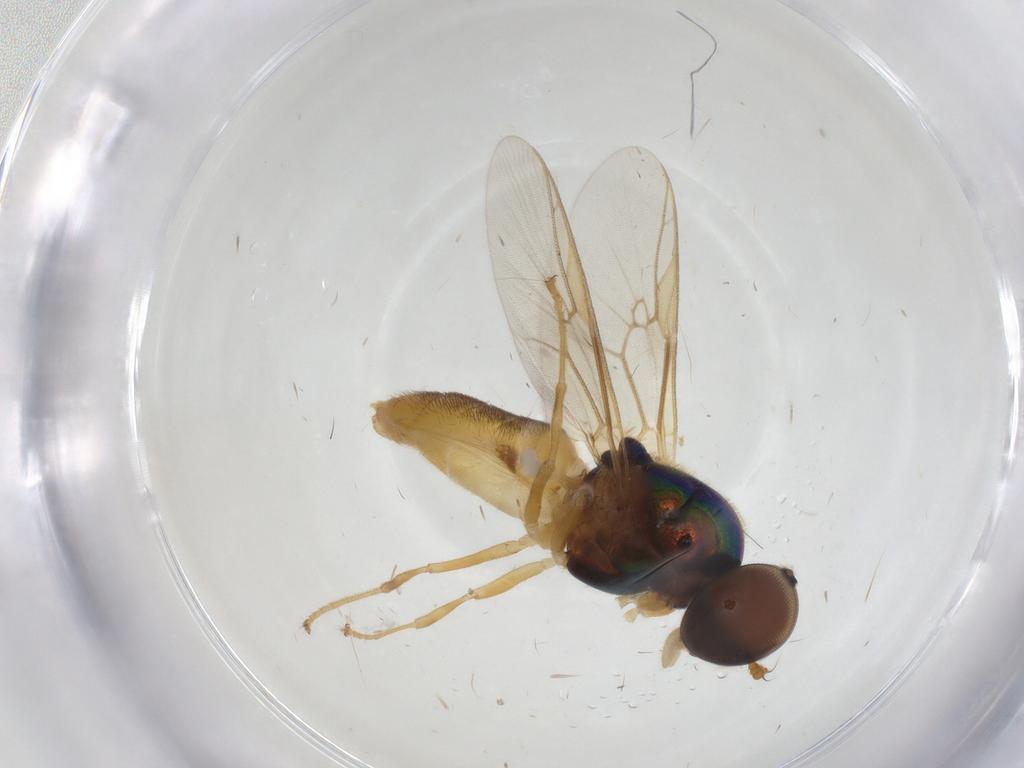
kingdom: Animalia
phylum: Arthropoda
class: Insecta
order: Diptera
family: Stratiomyidae
